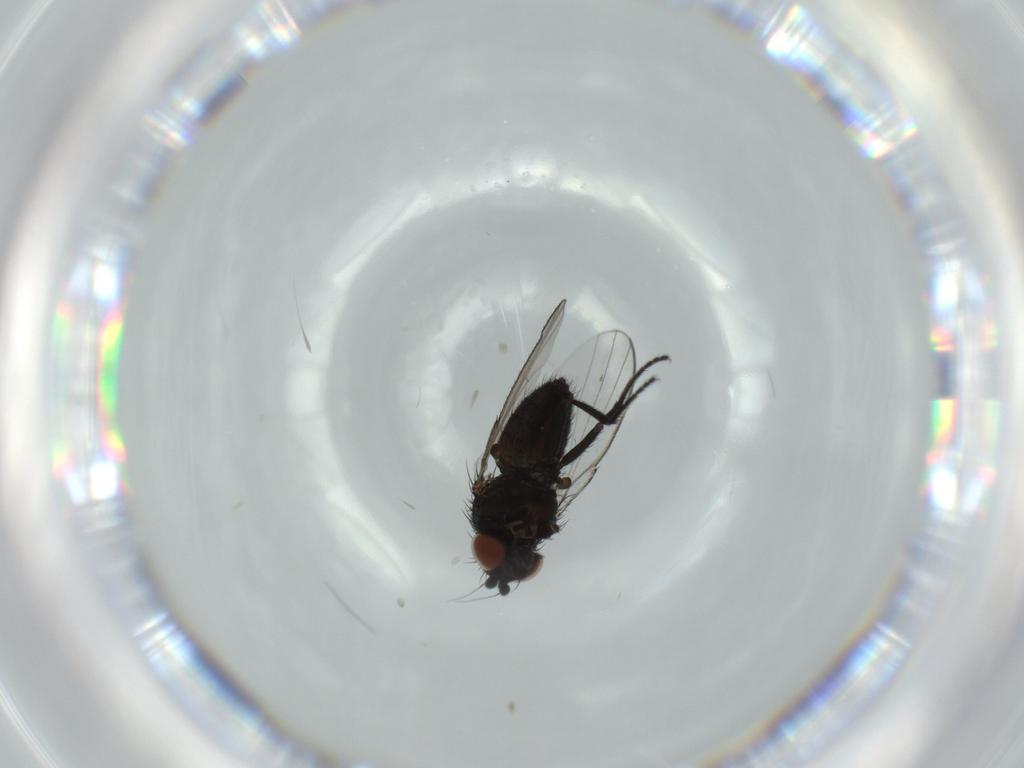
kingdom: Animalia
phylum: Arthropoda
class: Insecta
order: Diptera
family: Milichiidae
